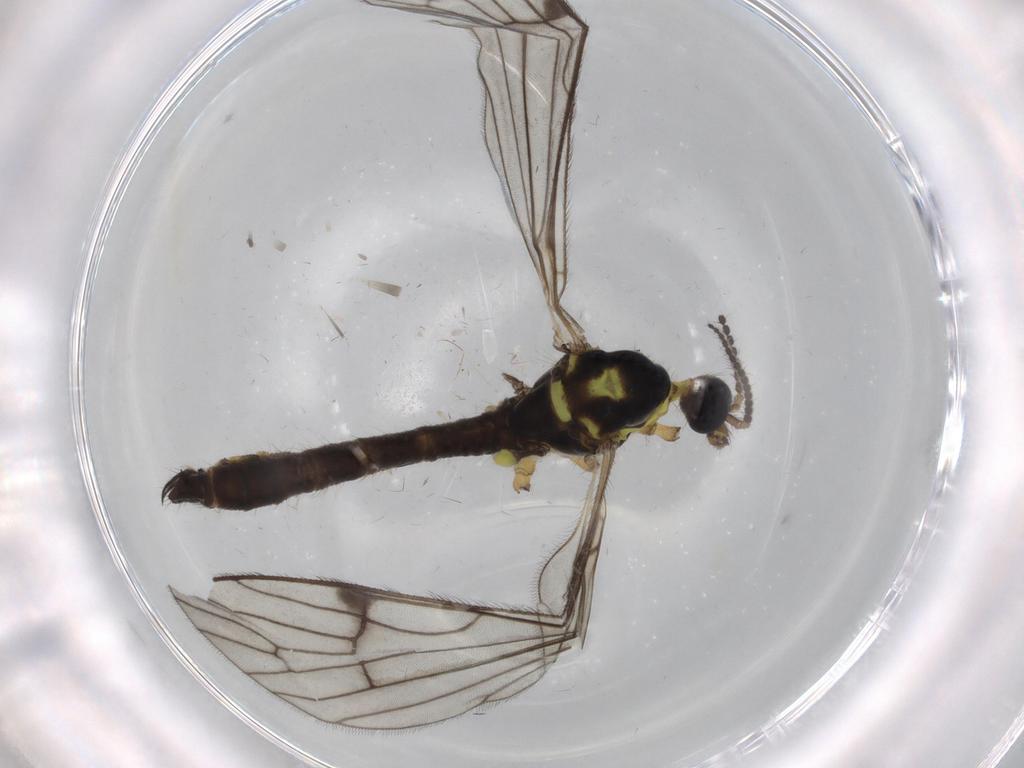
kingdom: Animalia
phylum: Arthropoda
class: Insecta
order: Diptera
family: Limoniidae
